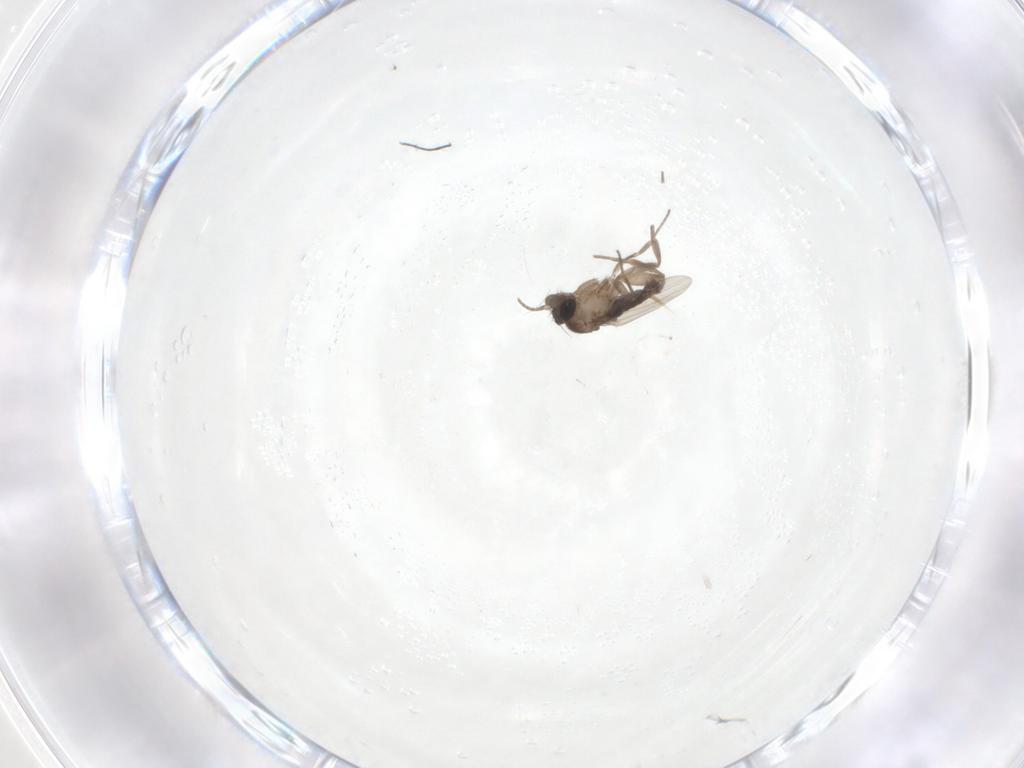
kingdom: Animalia
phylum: Arthropoda
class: Insecta
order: Diptera
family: Phoridae
